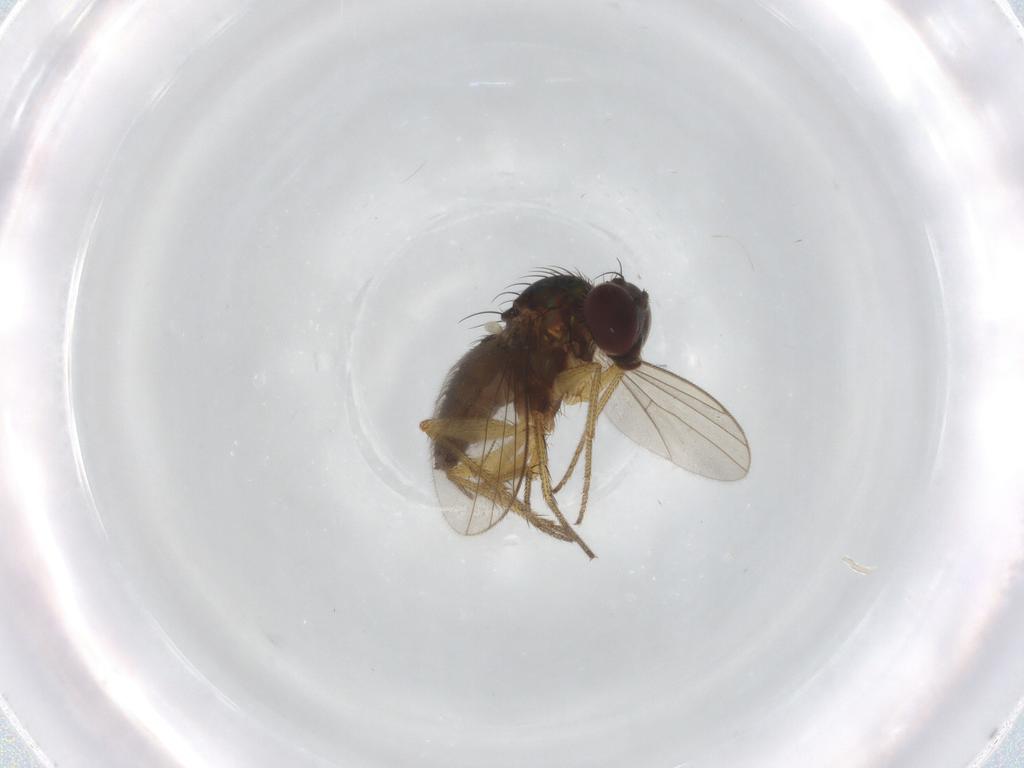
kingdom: Animalia
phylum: Arthropoda
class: Insecta
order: Diptera
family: Dolichopodidae
